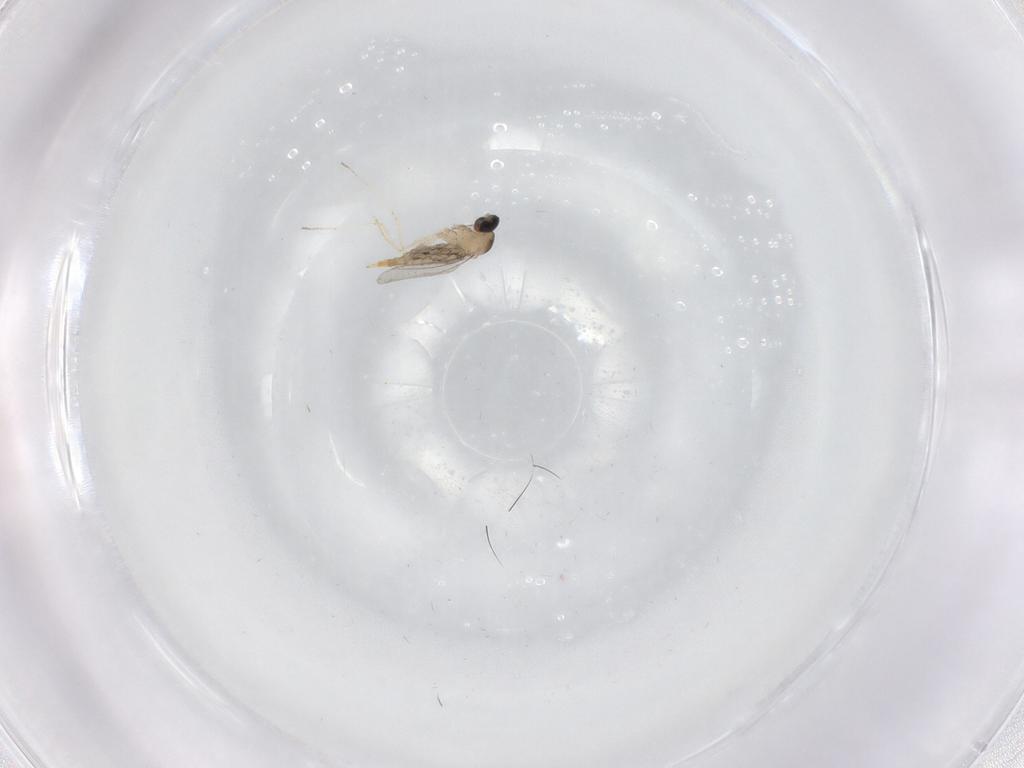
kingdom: Animalia
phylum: Arthropoda
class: Insecta
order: Diptera
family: Cecidomyiidae
